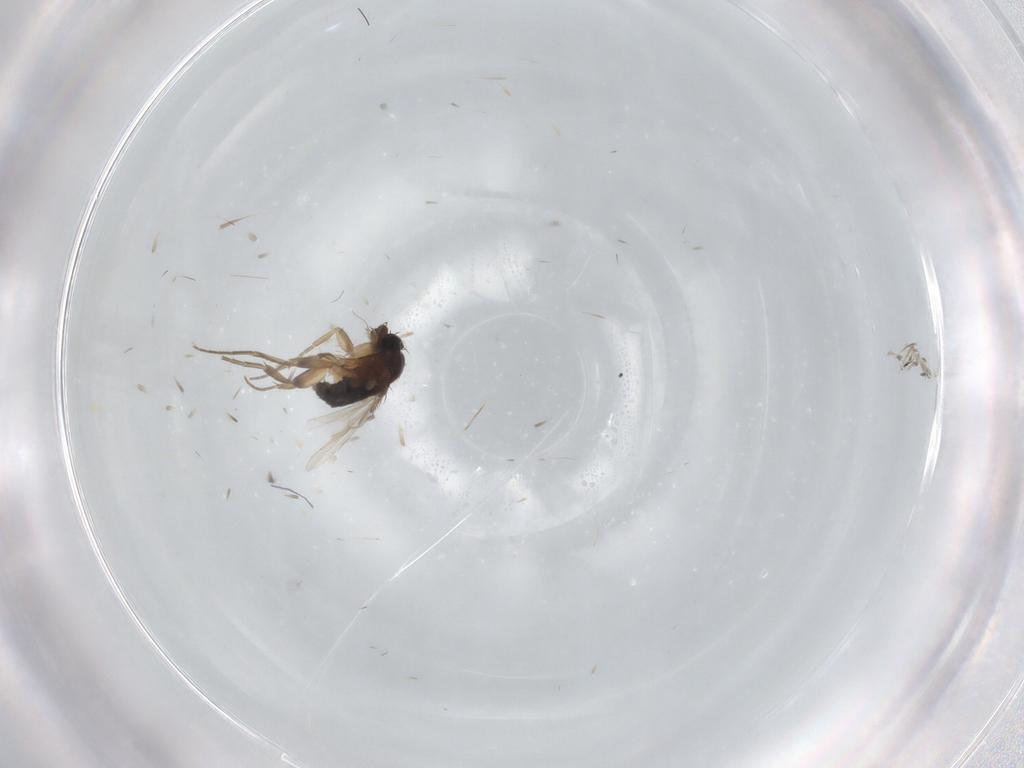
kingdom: Animalia
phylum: Arthropoda
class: Insecta
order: Diptera
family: Phoridae
